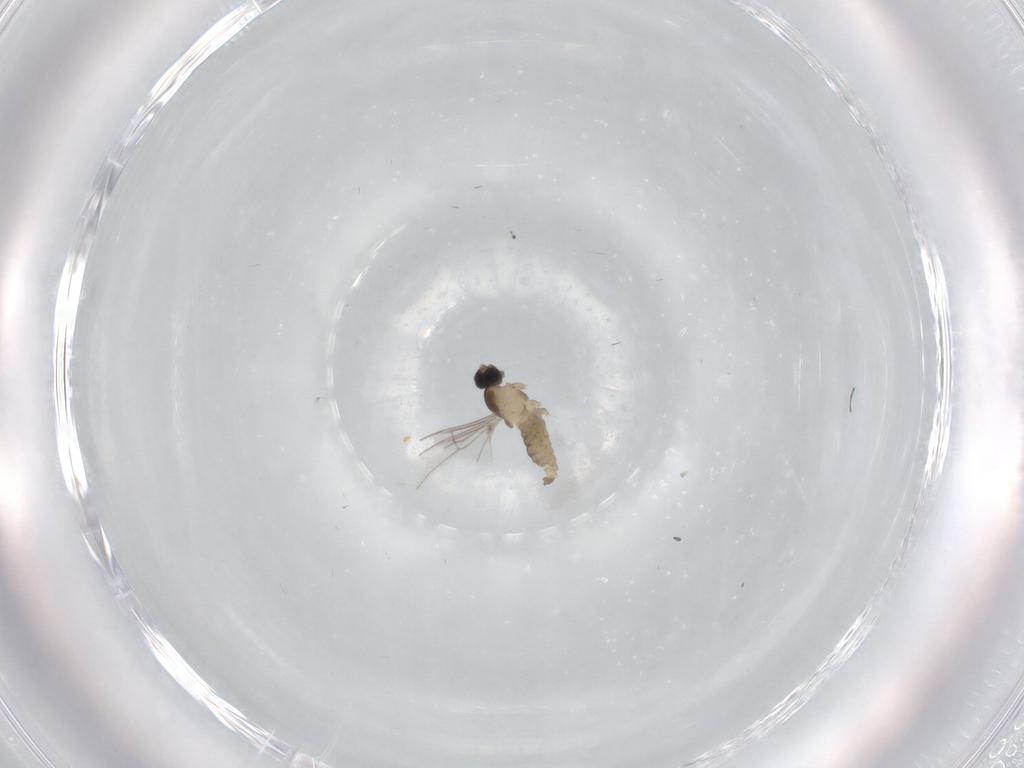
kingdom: Animalia
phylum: Arthropoda
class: Insecta
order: Diptera
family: Cecidomyiidae
